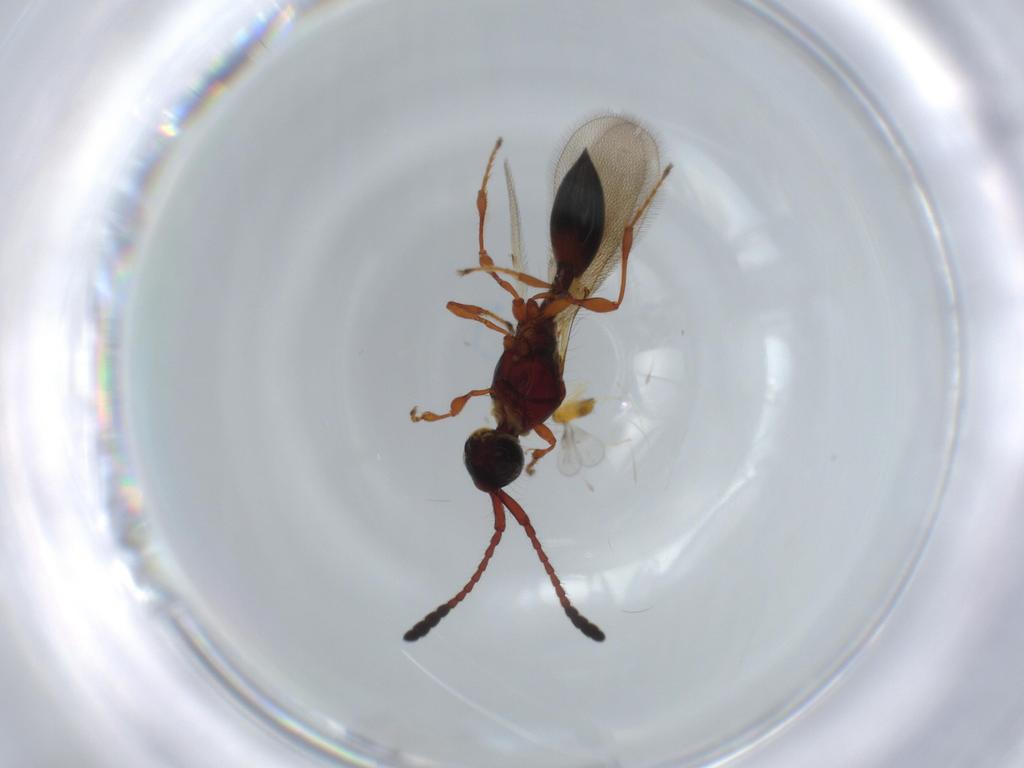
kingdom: Animalia
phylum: Arthropoda
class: Insecta
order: Hymenoptera
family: Diapriidae
